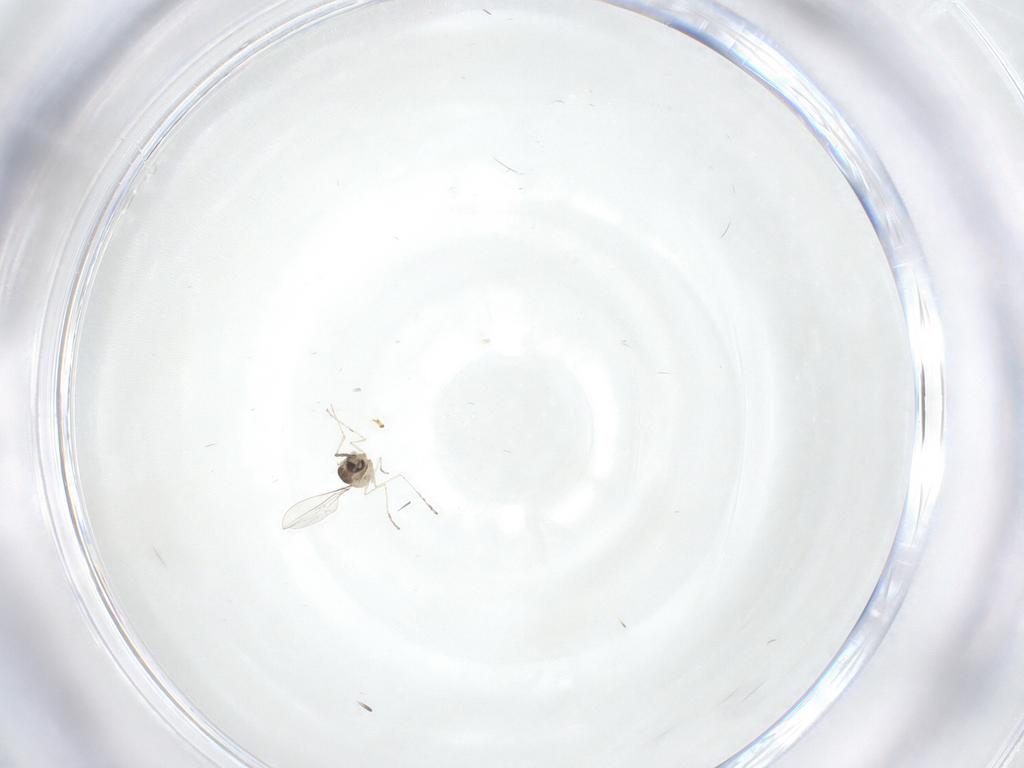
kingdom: Animalia
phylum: Arthropoda
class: Insecta
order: Diptera
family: Cecidomyiidae
